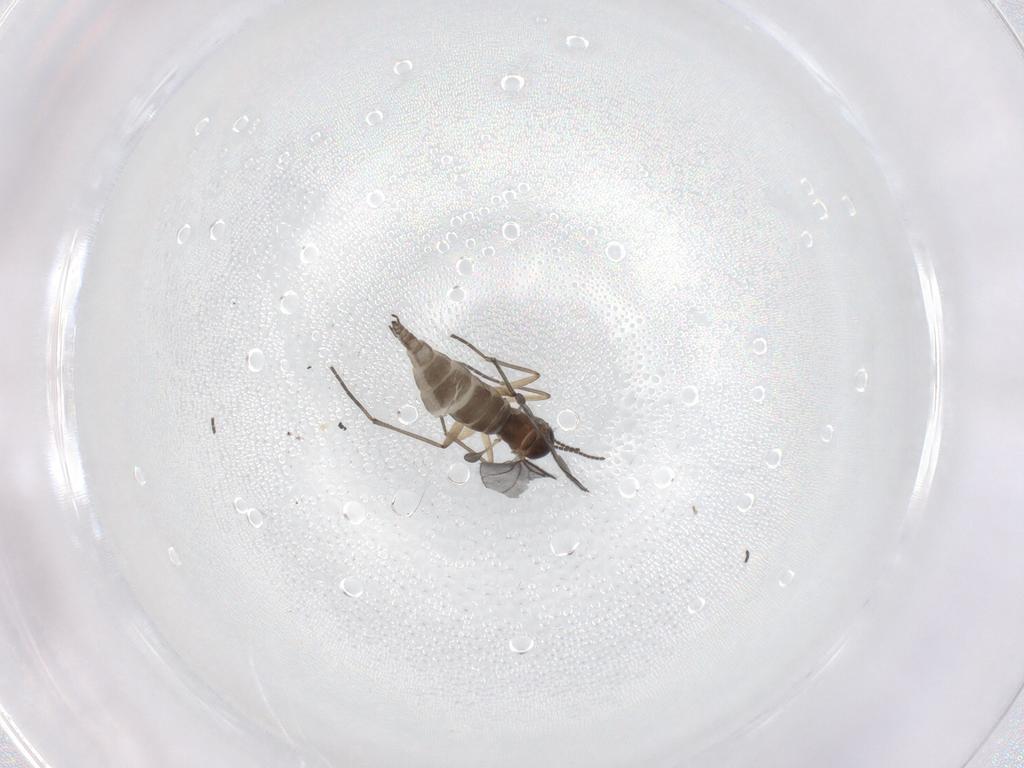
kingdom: Animalia
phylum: Arthropoda
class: Insecta
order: Diptera
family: Sciaridae
